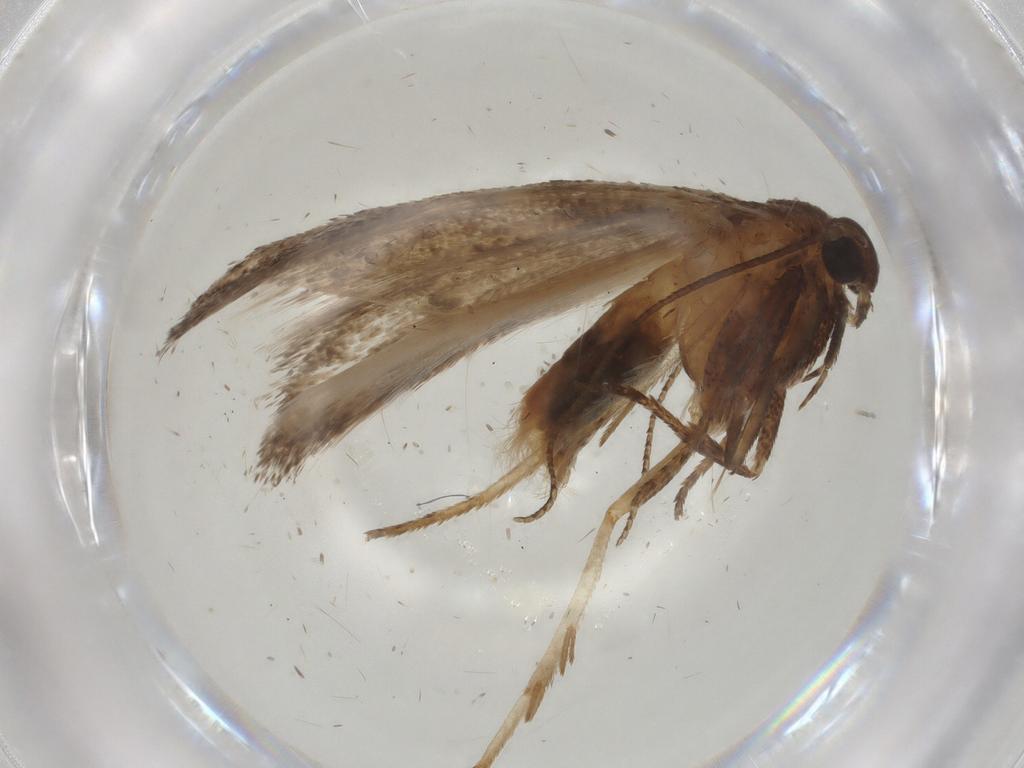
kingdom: Animalia
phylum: Arthropoda
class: Insecta
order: Lepidoptera
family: Cosmopterigidae
